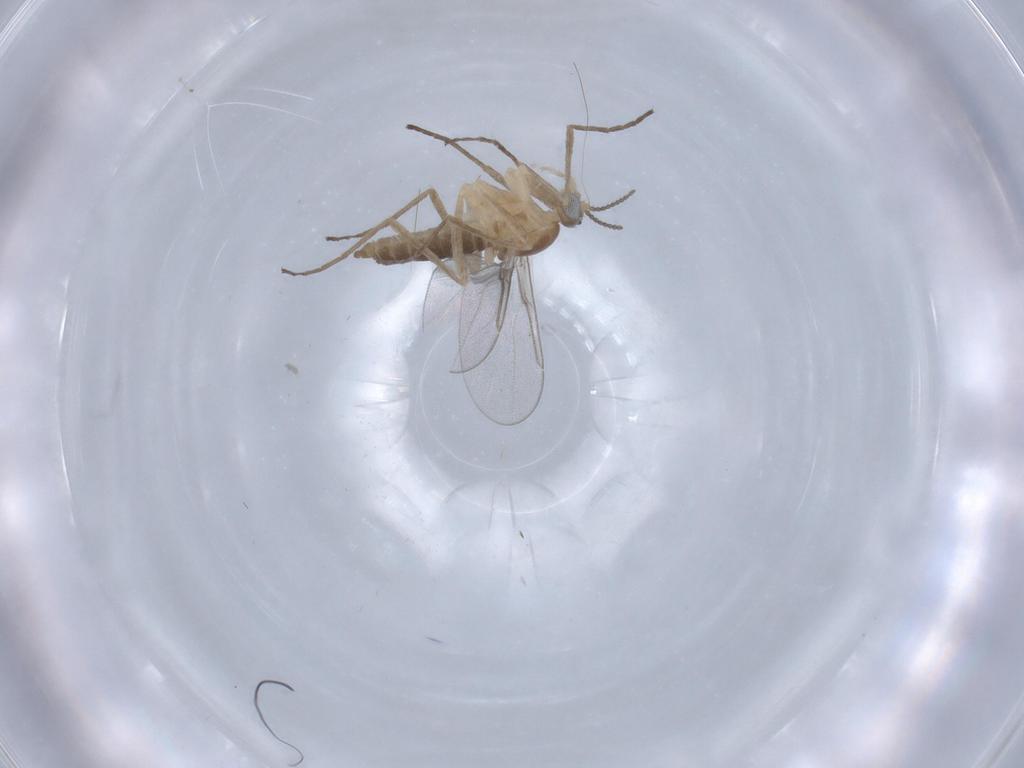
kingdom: Animalia
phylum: Arthropoda
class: Insecta
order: Diptera
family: Cecidomyiidae
